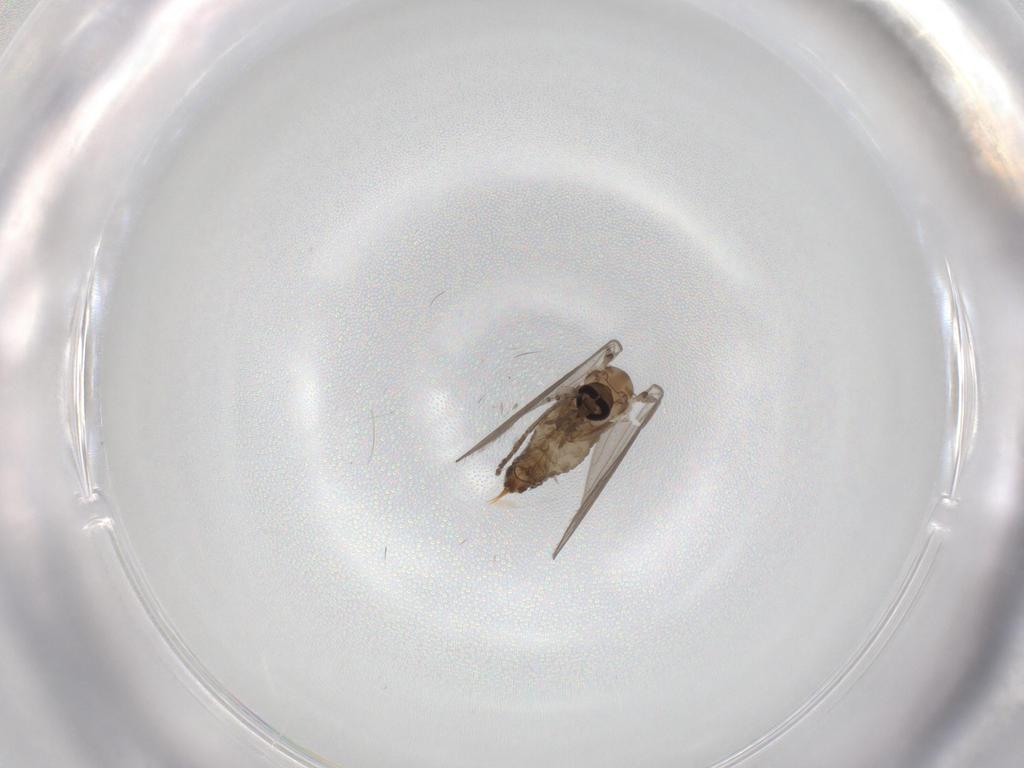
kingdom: Animalia
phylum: Arthropoda
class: Insecta
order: Diptera
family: Psychodidae
